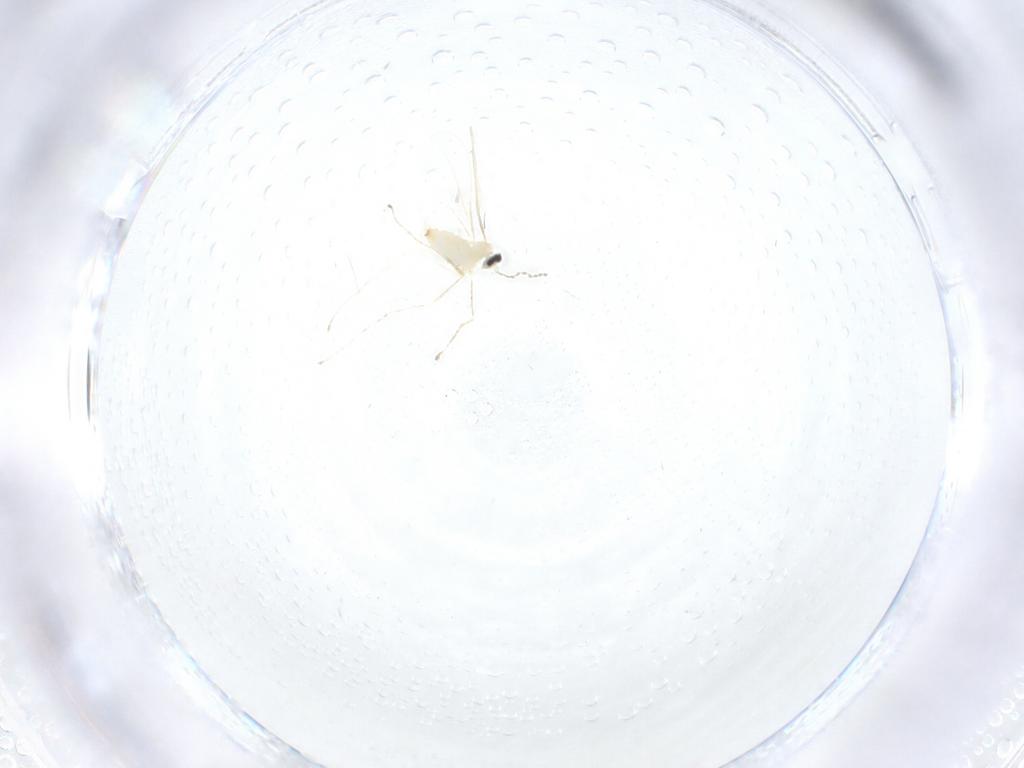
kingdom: Animalia
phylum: Arthropoda
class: Insecta
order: Diptera
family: Cecidomyiidae
